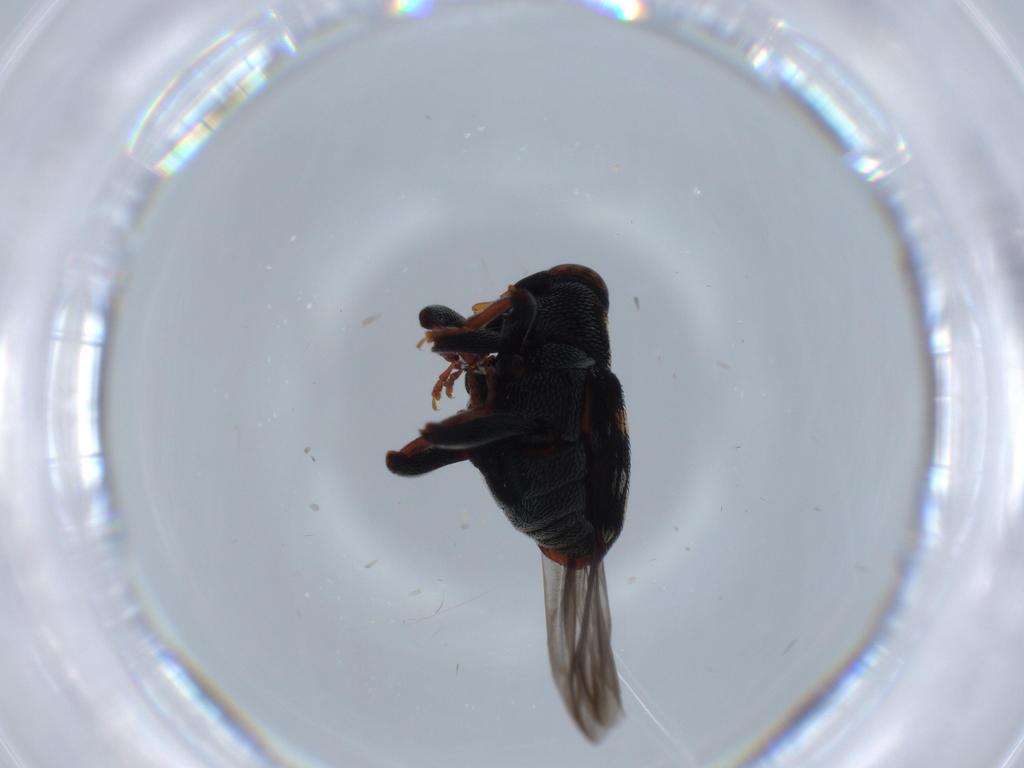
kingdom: Animalia
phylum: Arthropoda
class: Insecta
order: Coleoptera
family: Curculionidae
